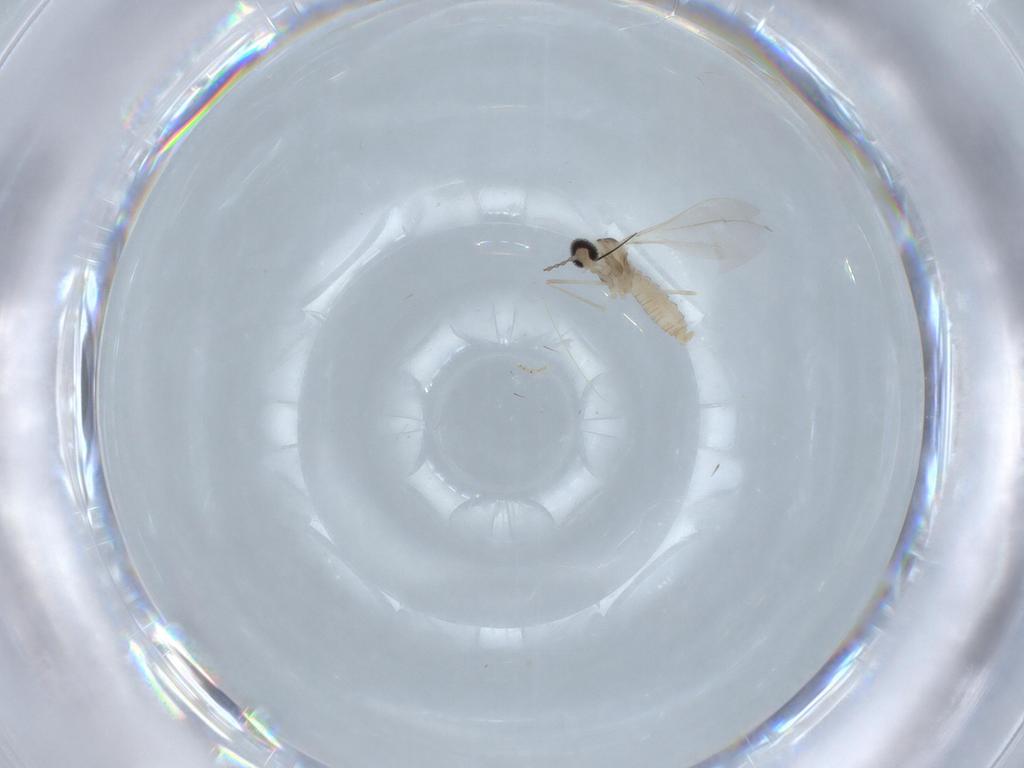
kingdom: Animalia
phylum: Arthropoda
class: Insecta
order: Diptera
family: Cecidomyiidae
